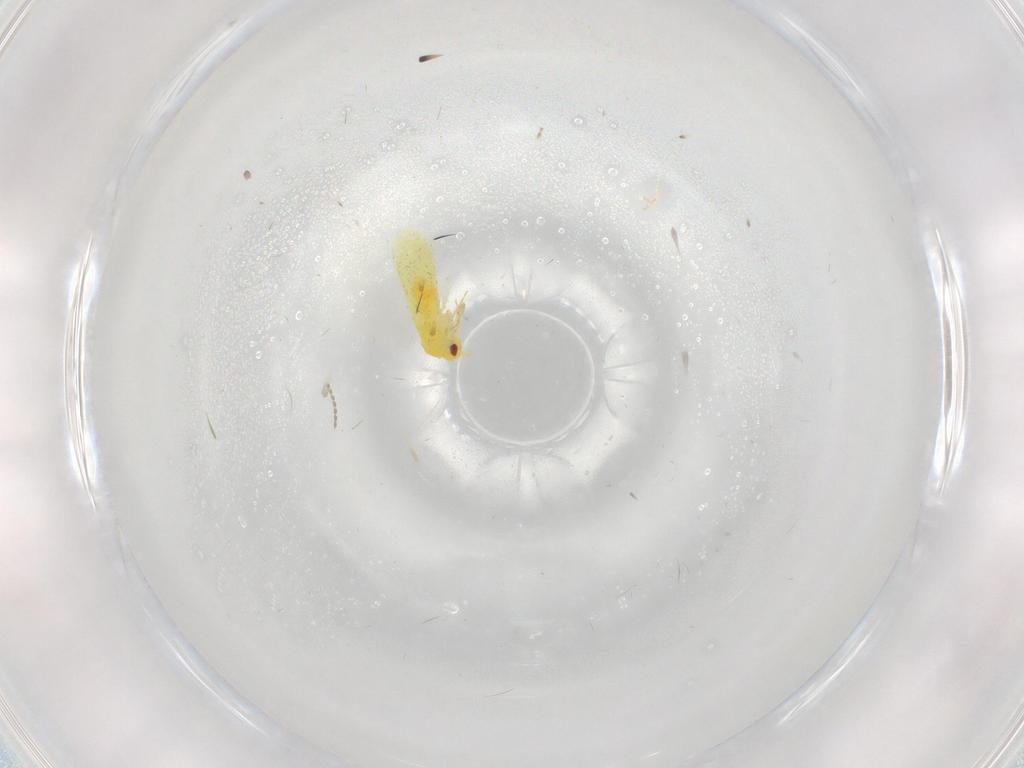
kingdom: Animalia
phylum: Arthropoda
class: Insecta
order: Hemiptera
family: Aleyrodidae
